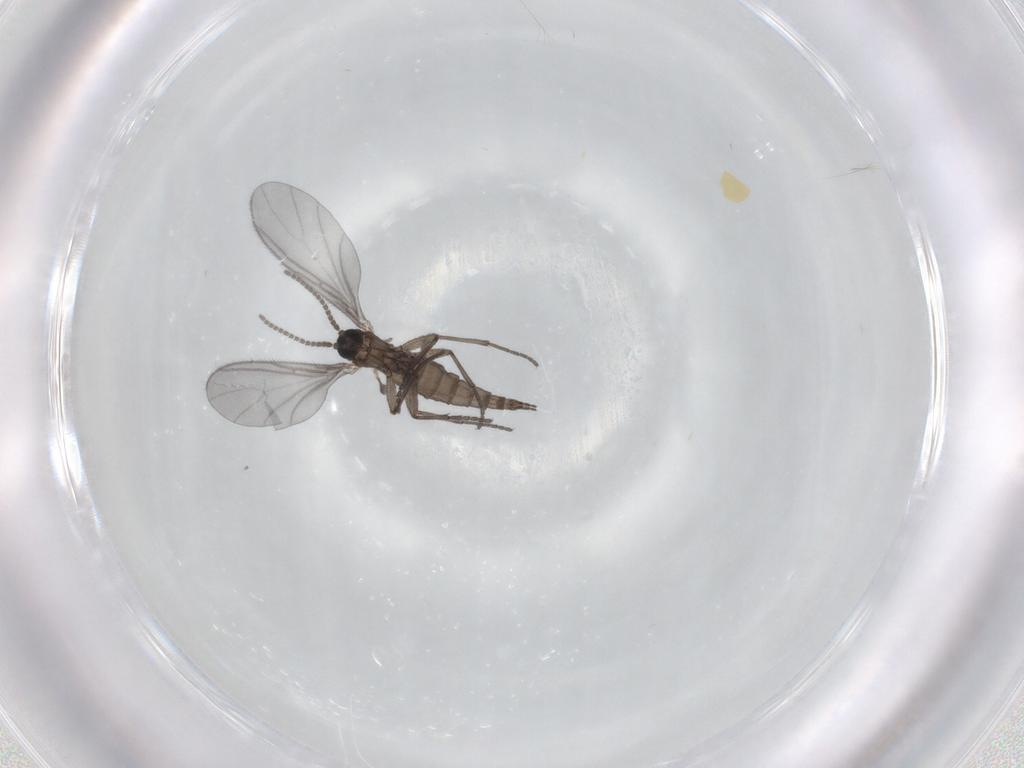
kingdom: Animalia
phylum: Arthropoda
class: Insecta
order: Diptera
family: Sciaridae
